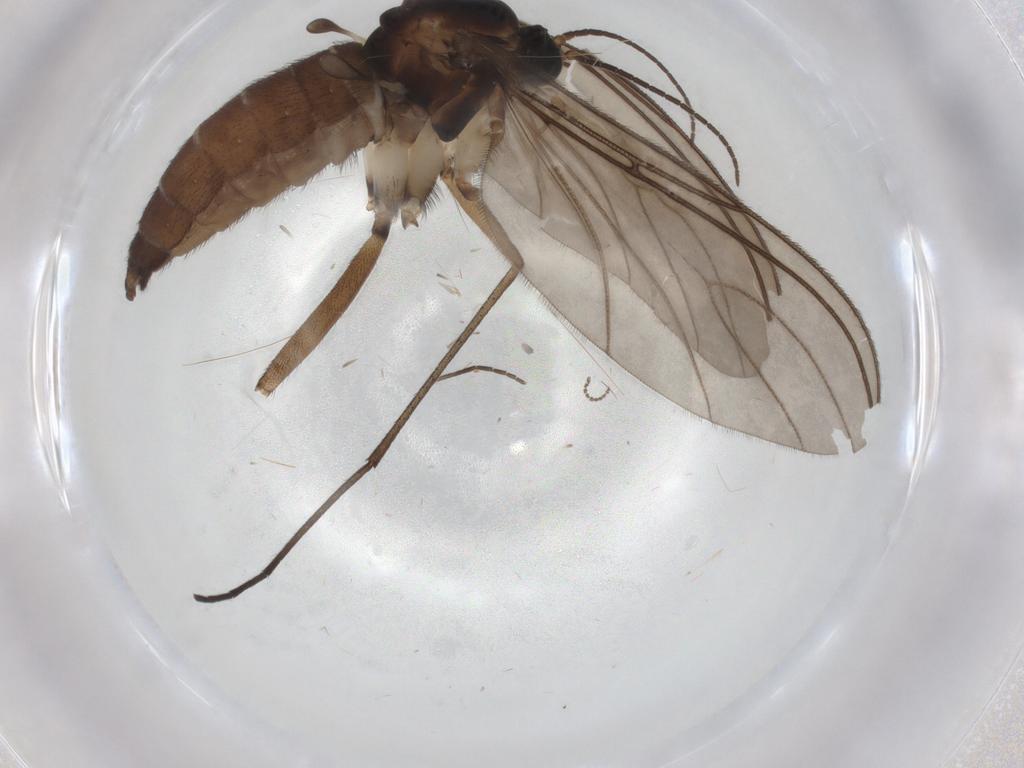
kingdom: Animalia
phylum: Arthropoda
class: Insecta
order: Diptera
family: Sciaridae
